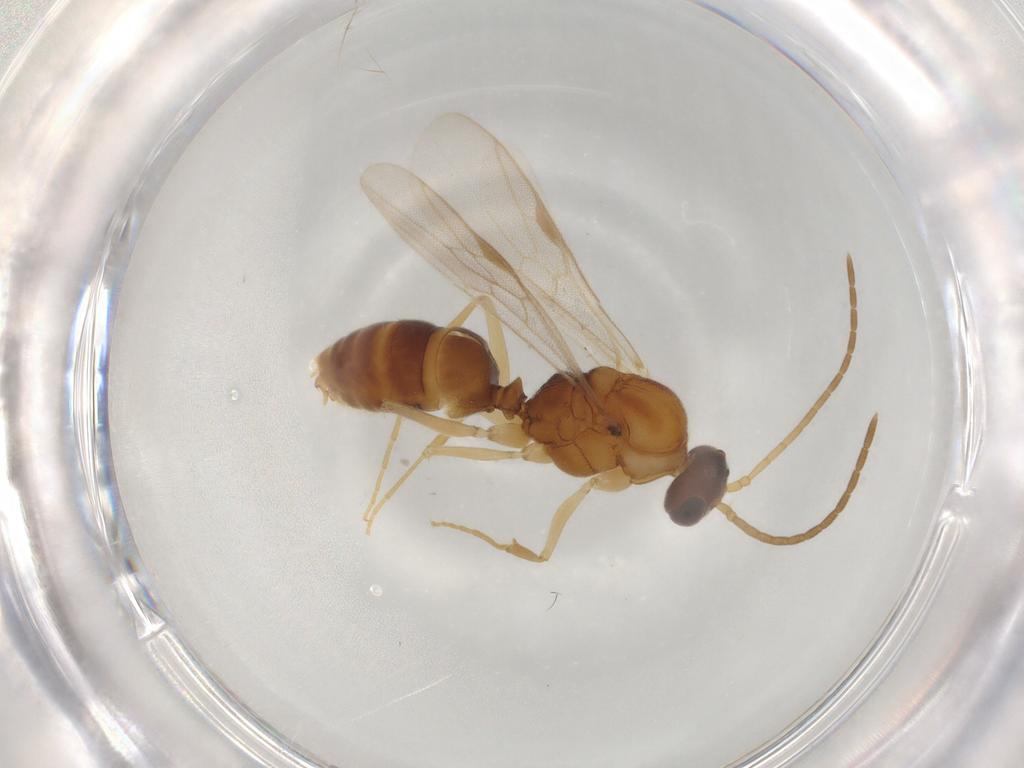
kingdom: Animalia
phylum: Arthropoda
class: Insecta
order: Hymenoptera
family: Formicidae
